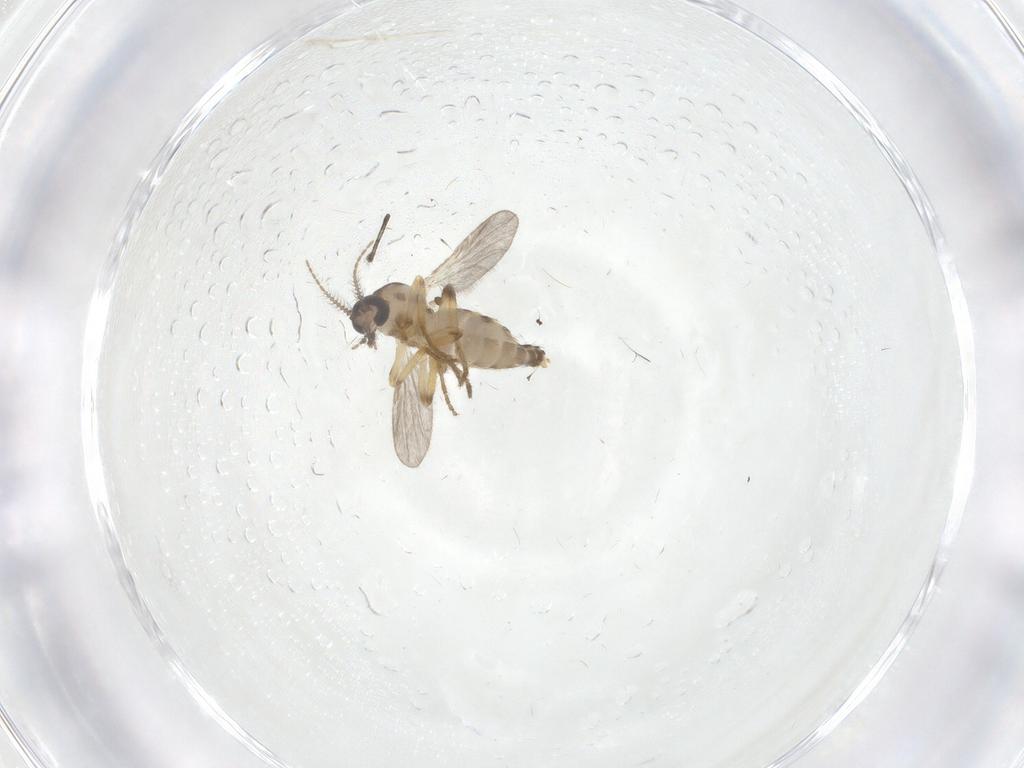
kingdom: Animalia
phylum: Arthropoda
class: Insecta
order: Diptera
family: Ceratopogonidae
